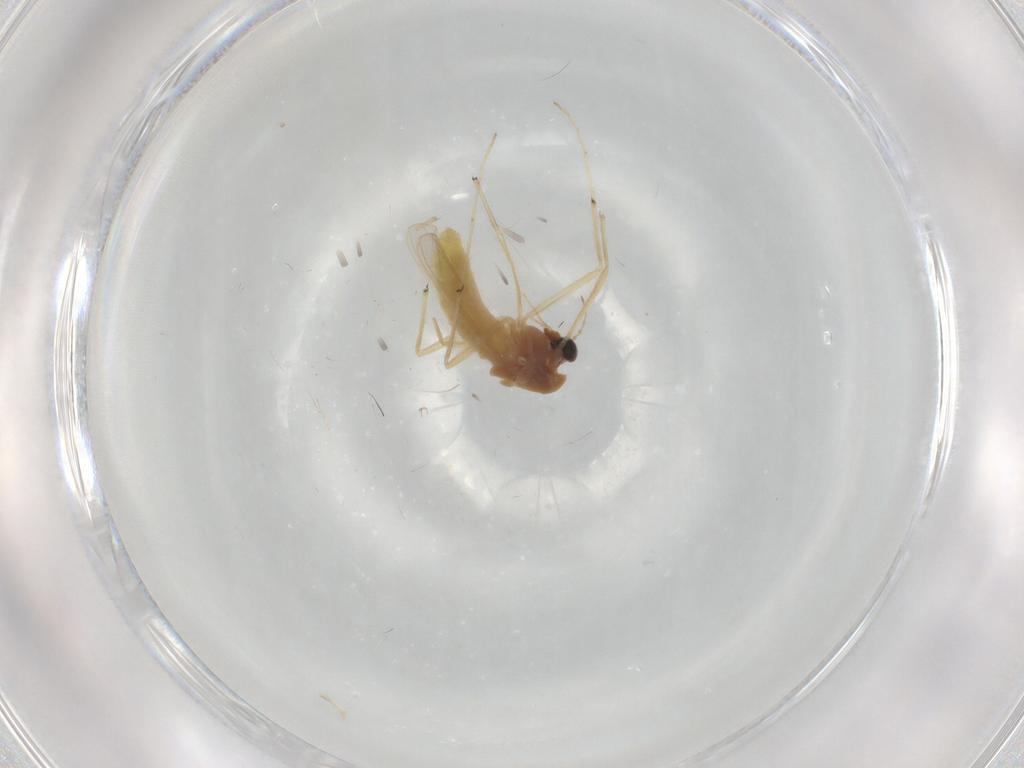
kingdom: Animalia
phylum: Arthropoda
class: Insecta
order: Diptera
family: Chironomidae
